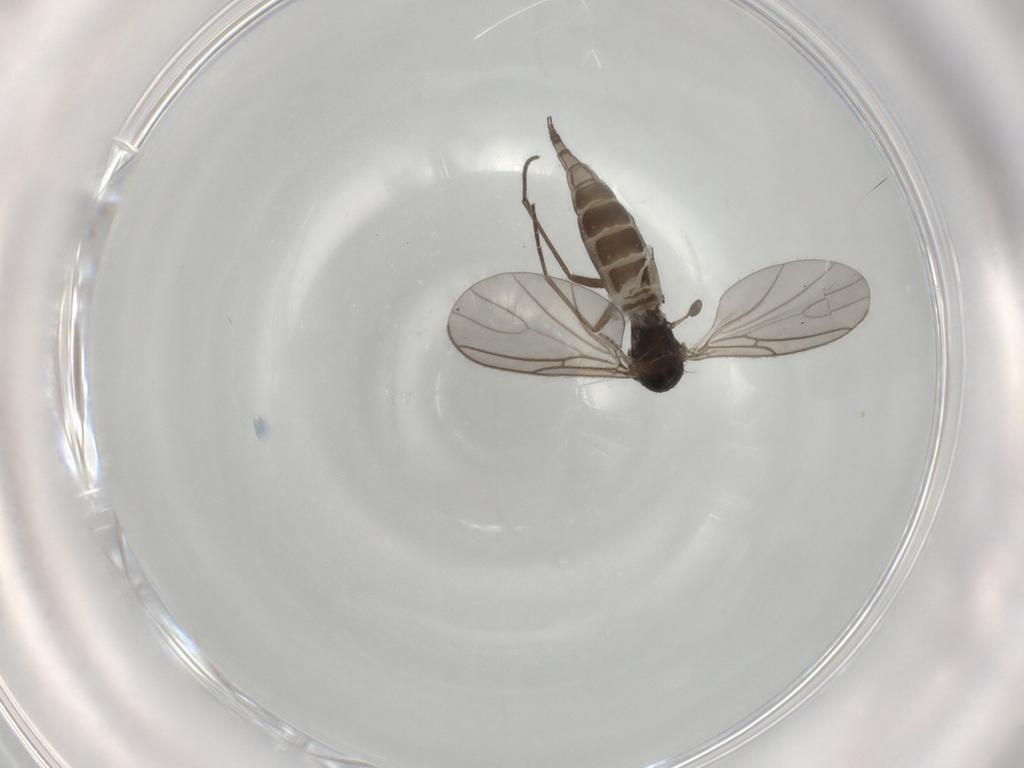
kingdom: Animalia
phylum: Arthropoda
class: Insecta
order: Diptera
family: Sciaridae
